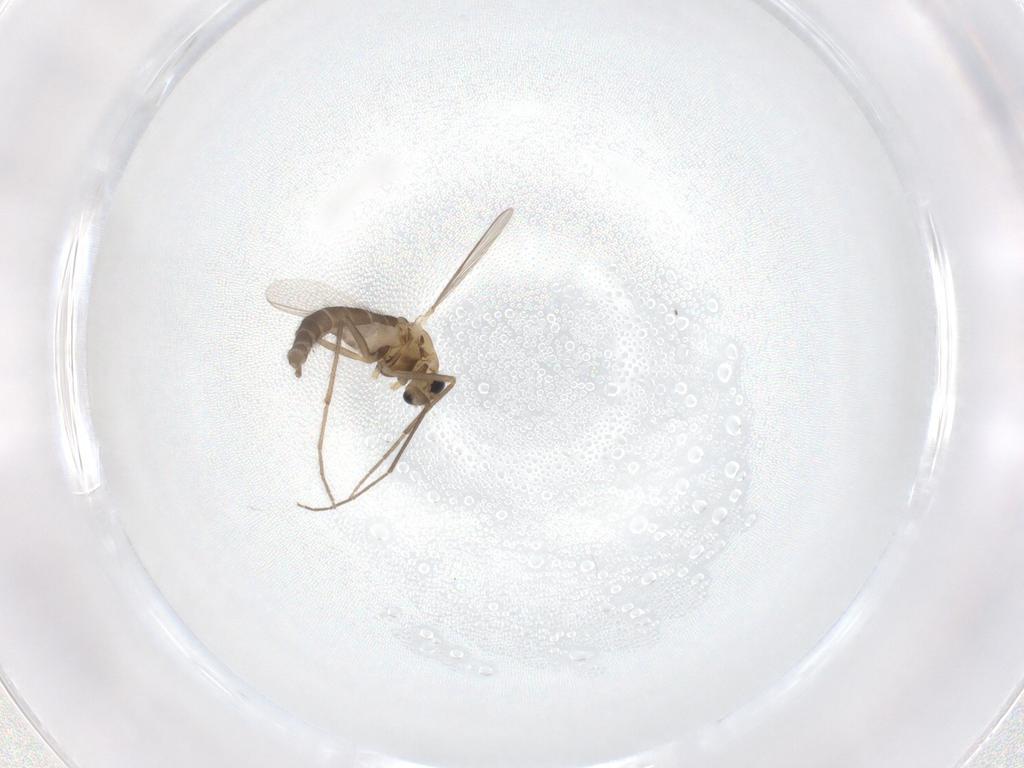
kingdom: Animalia
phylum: Arthropoda
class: Insecta
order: Diptera
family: Chironomidae
